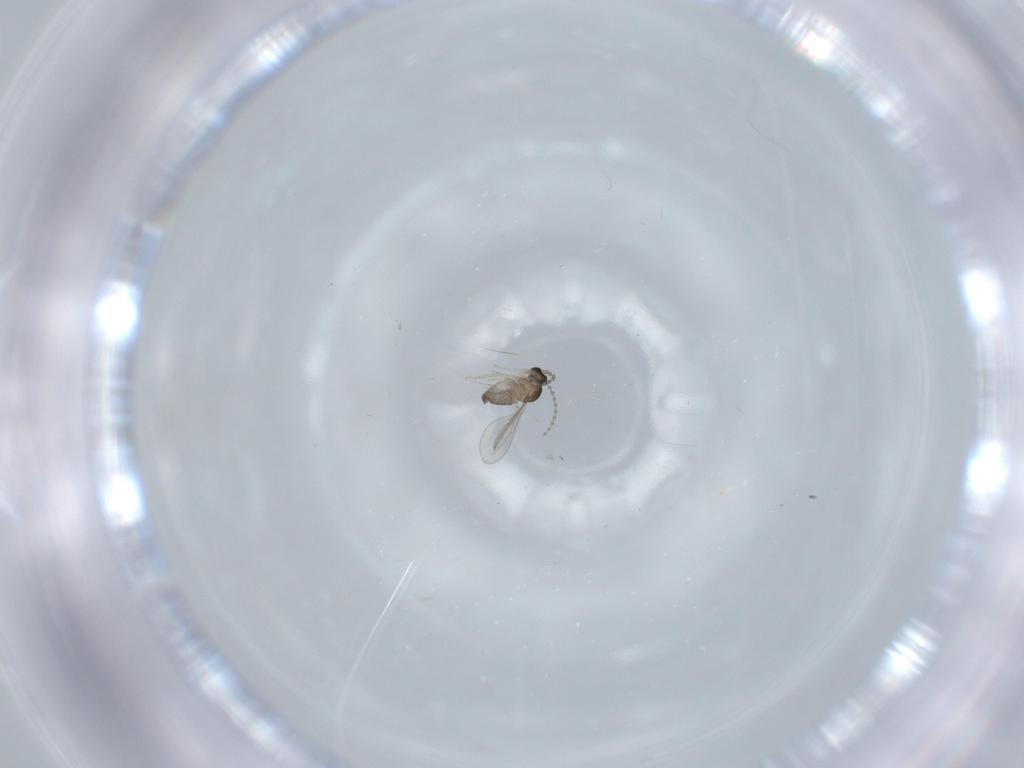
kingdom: Animalia
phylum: Arthropoda
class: Insecta
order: Diptera
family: Cecidomyiidae
